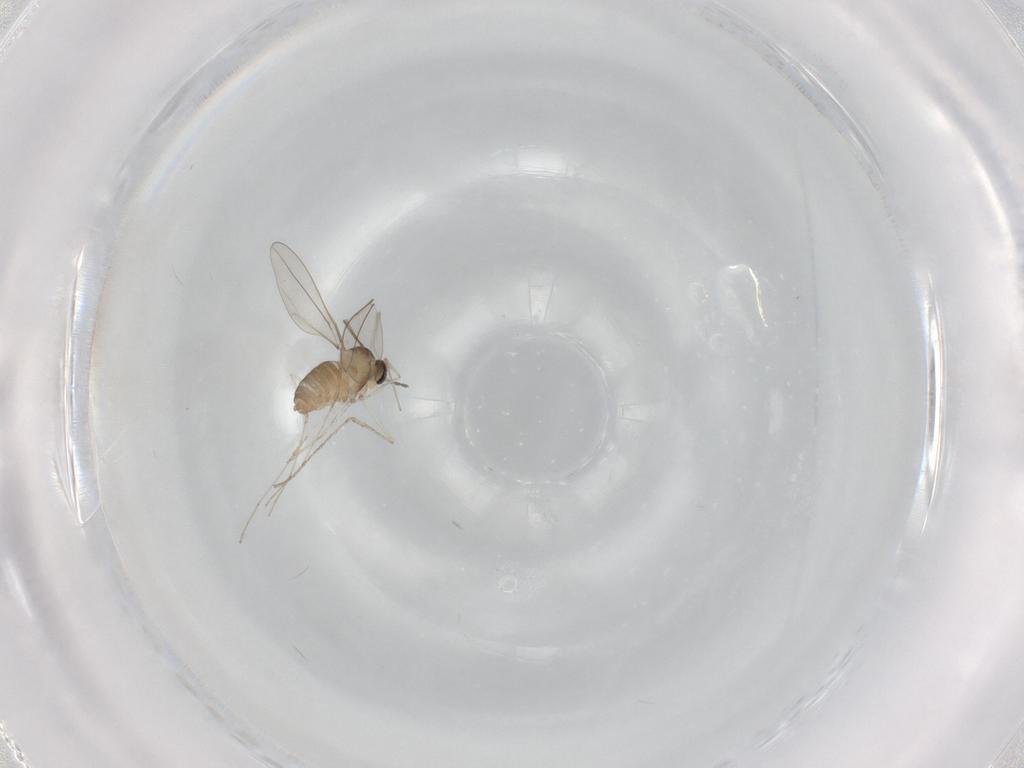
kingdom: Animalia
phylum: Arthropoda
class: Insecta
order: Diptera
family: Cecidomyiidae
